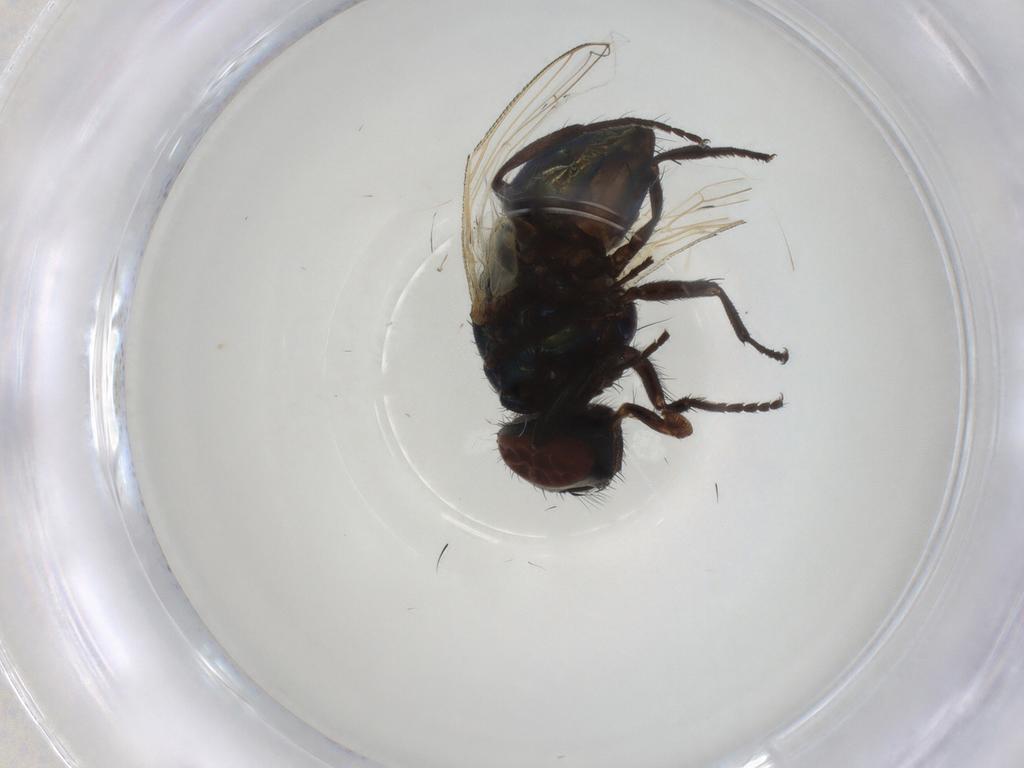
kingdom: Animalia
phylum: Arthropoda
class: Insecta
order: Diptera
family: Muscidae
